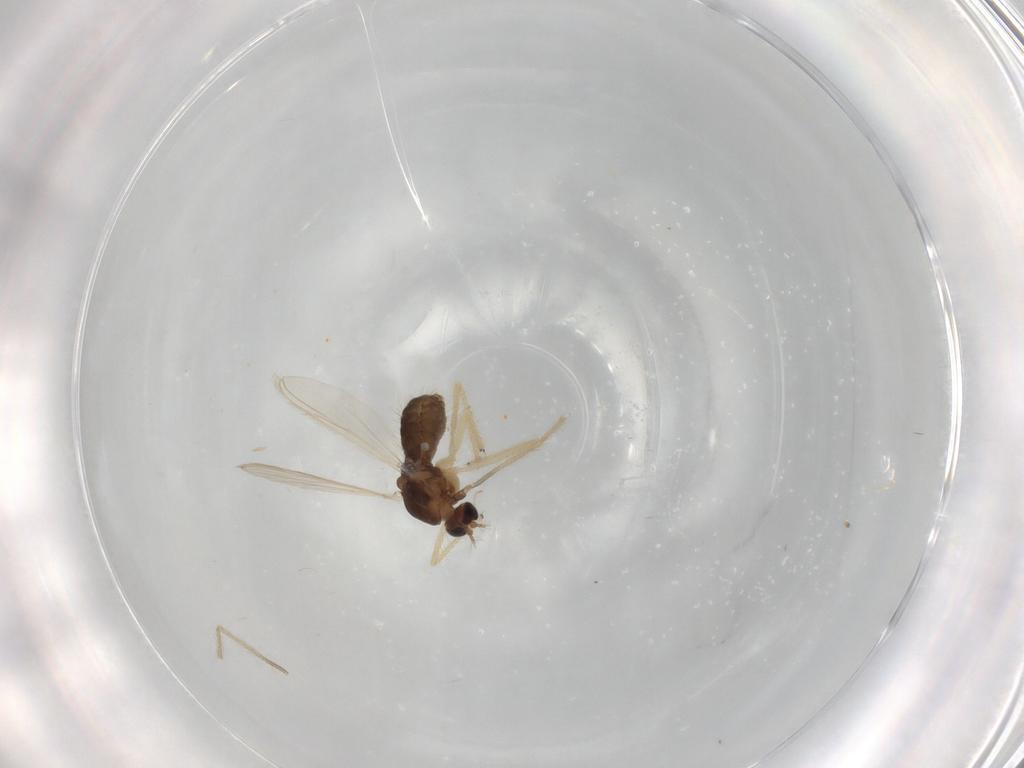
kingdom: Animalia
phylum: Arthropoda
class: Insecta
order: Diptera
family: Chironomidae
